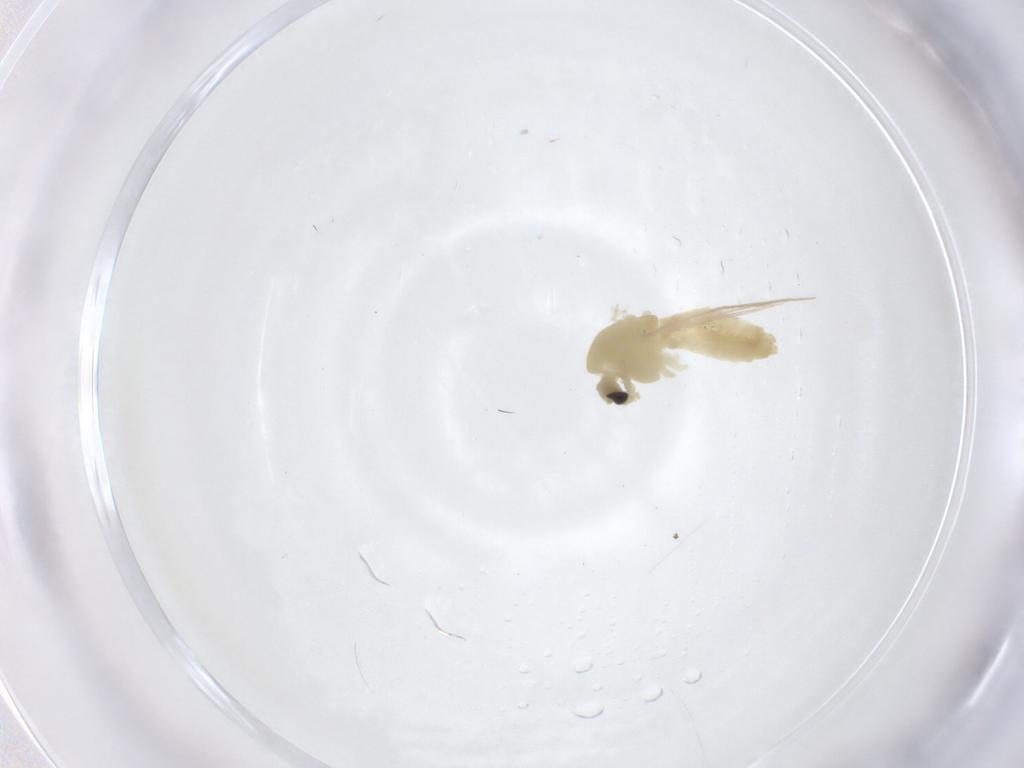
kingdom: Animalia
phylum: Arthropoda
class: Insecta
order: Diptera
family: Chironomidae
